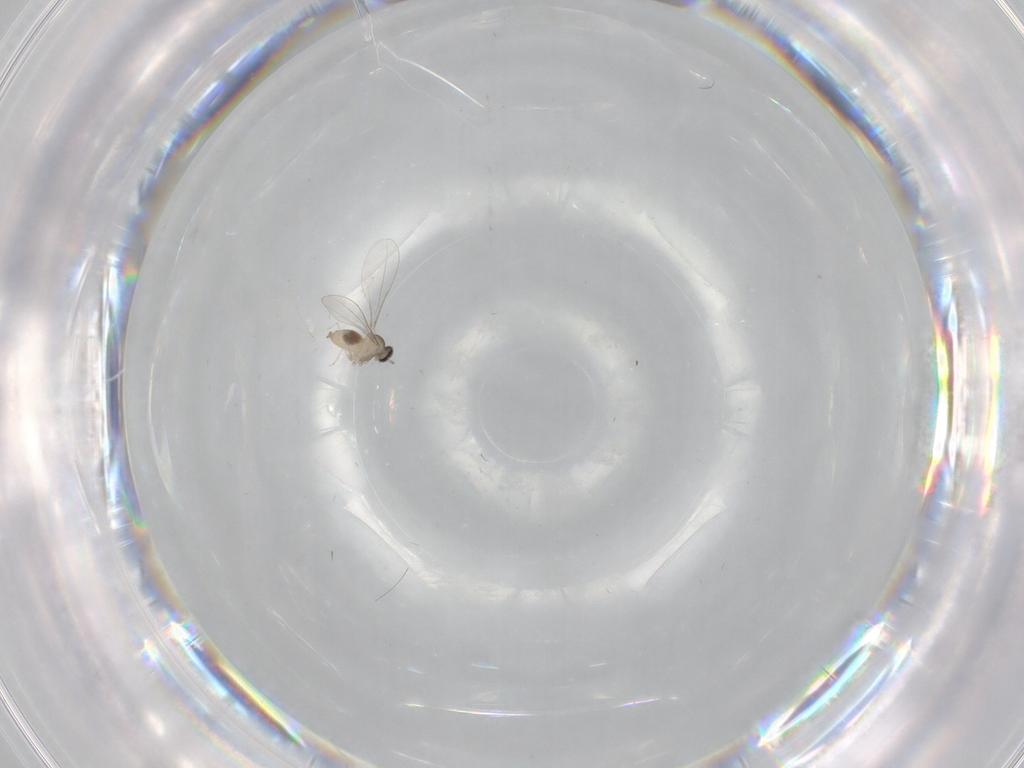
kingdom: Animalia
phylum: Arthropoda
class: Insecta
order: Diptera
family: Cecidomyiidae
